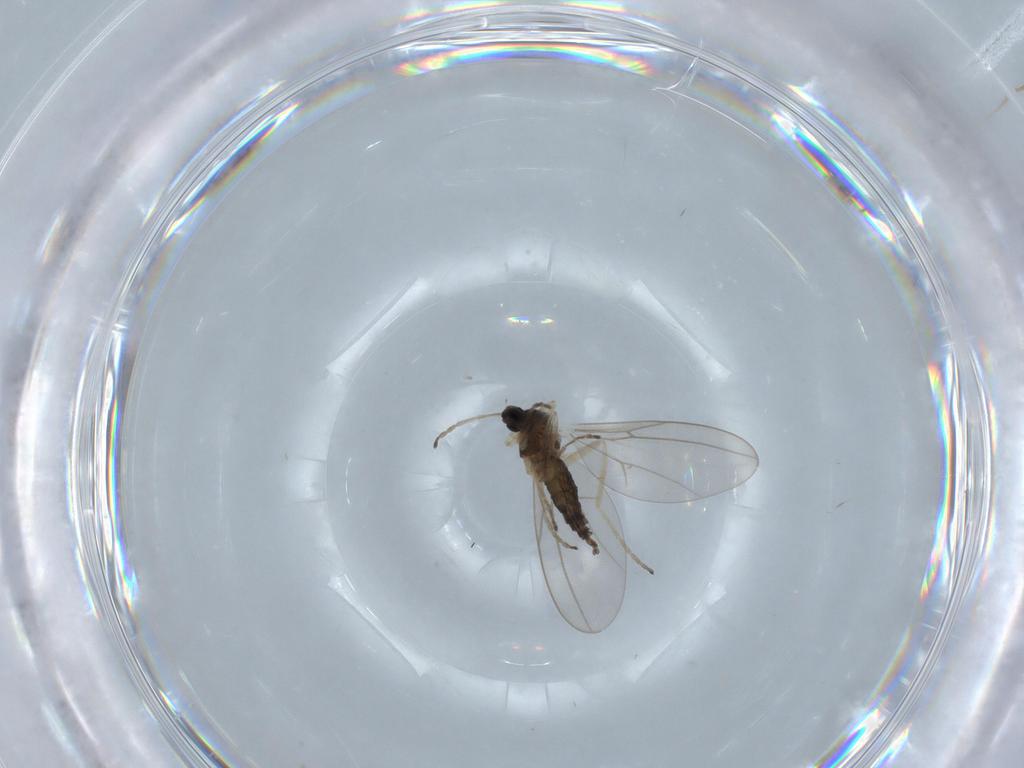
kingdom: Animalia
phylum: Arthropoda
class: Insecta
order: Diptera
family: Cecidomyiidae
